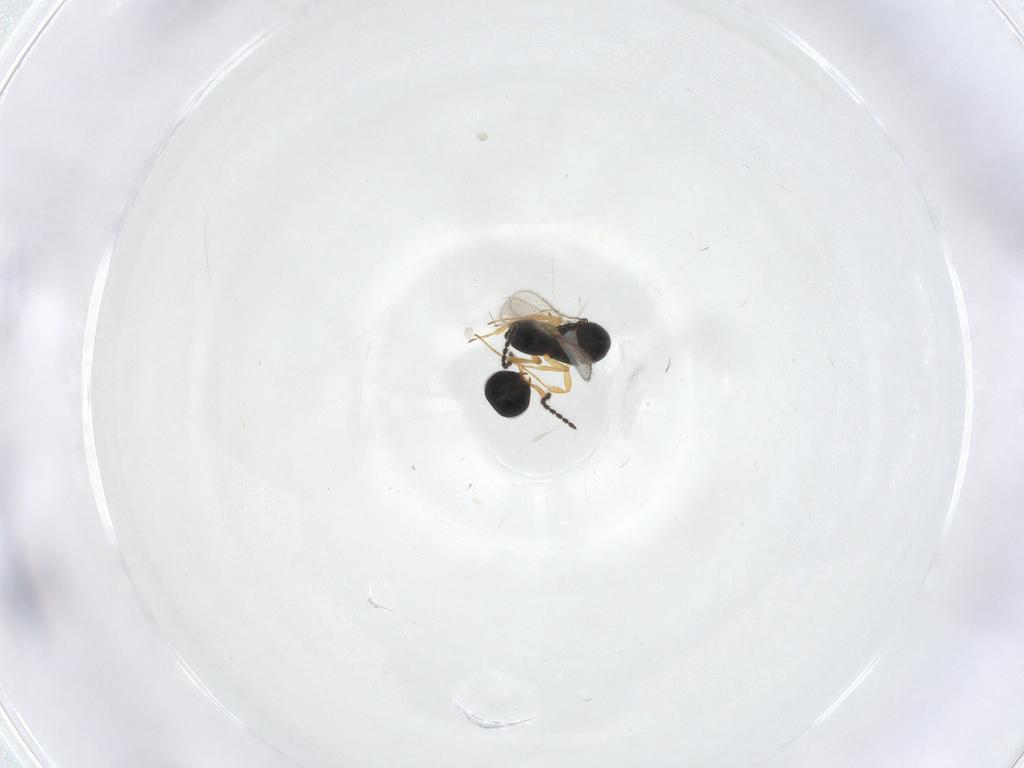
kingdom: Animalia
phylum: Arthropoda
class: Insecta
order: Hymenoptera
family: Scelionidae
